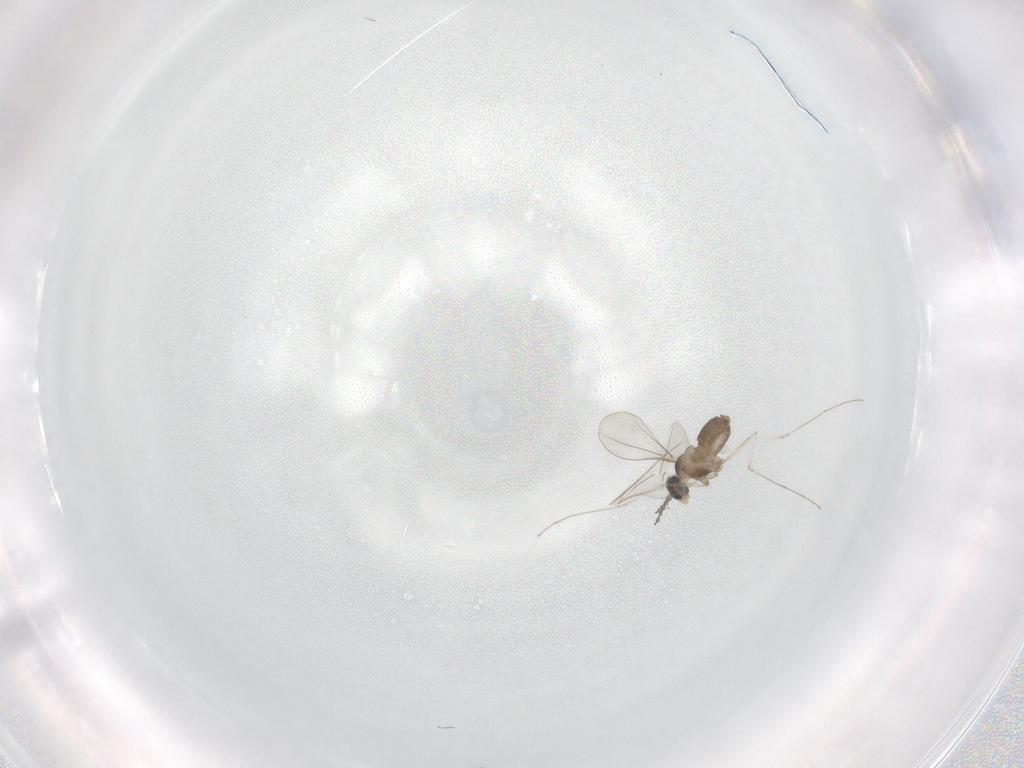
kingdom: Animalia
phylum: Arthropoda
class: Insecta
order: Diptera
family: Cecidomyiidae
